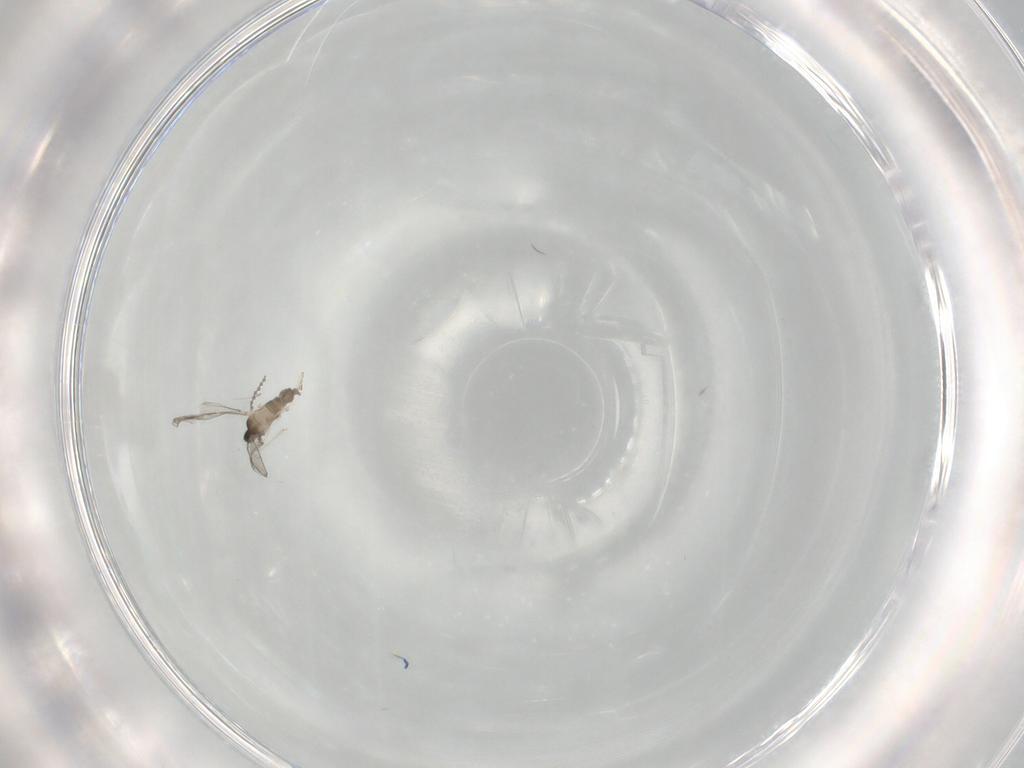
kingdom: Animalia
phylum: Arthropoda
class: Insecta
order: Diptera
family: Cecidomyiidae
